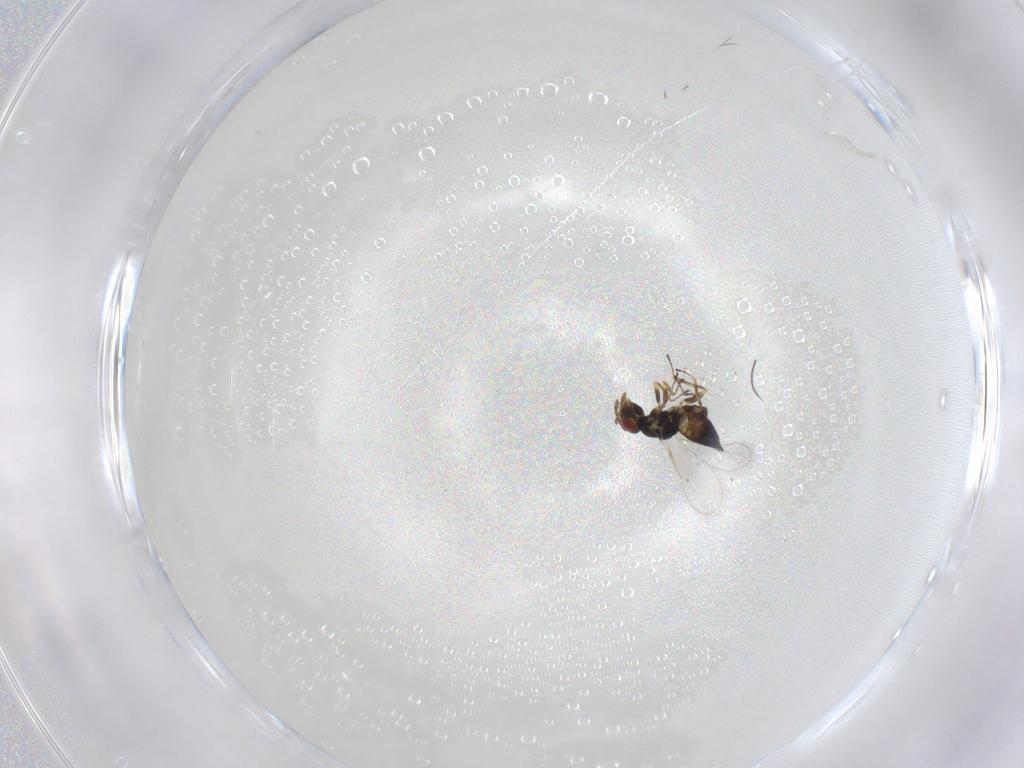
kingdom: Animalia
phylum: Arthropoda
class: Insecta
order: Hymenoptera
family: Eulophidae
